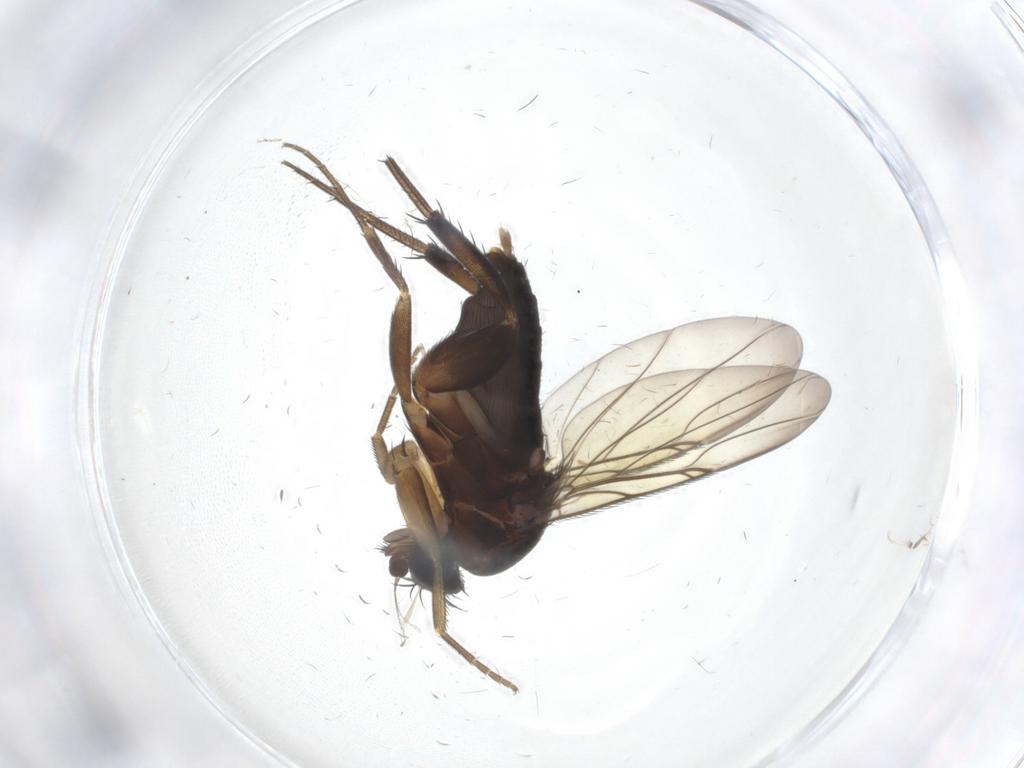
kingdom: Animalia
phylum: Arthropoda
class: Insecta
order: Diptera
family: Phoridae
